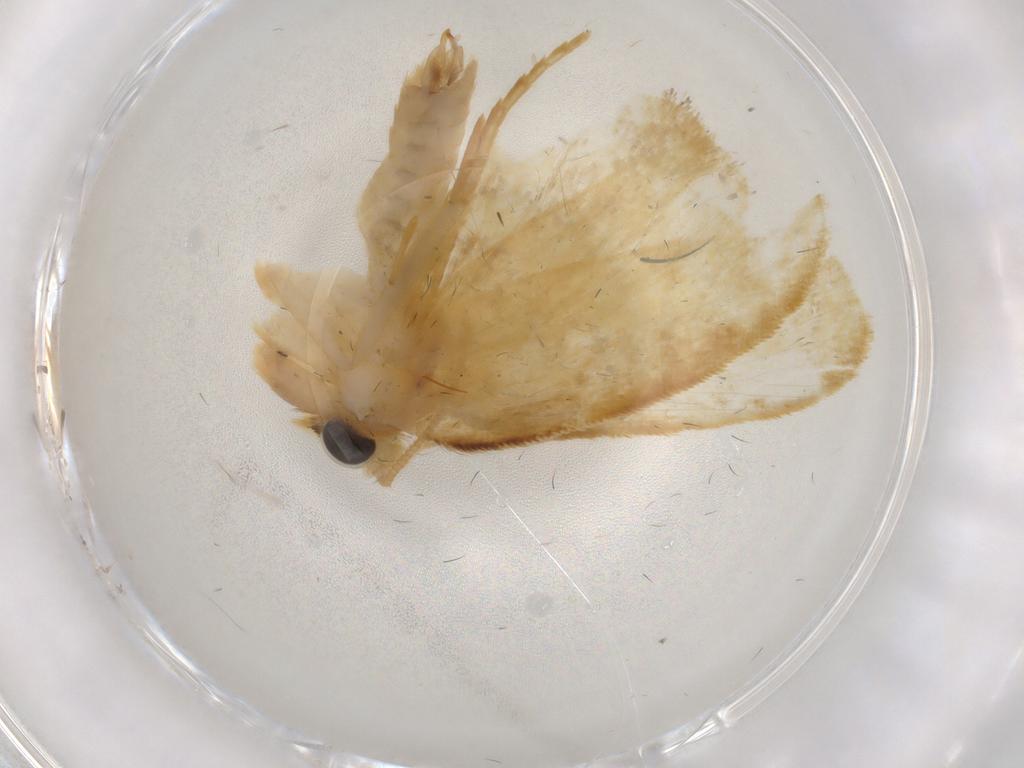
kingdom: Animalia
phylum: Arthropoda
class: Insecta
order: Lepidoptera
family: Psychidae
